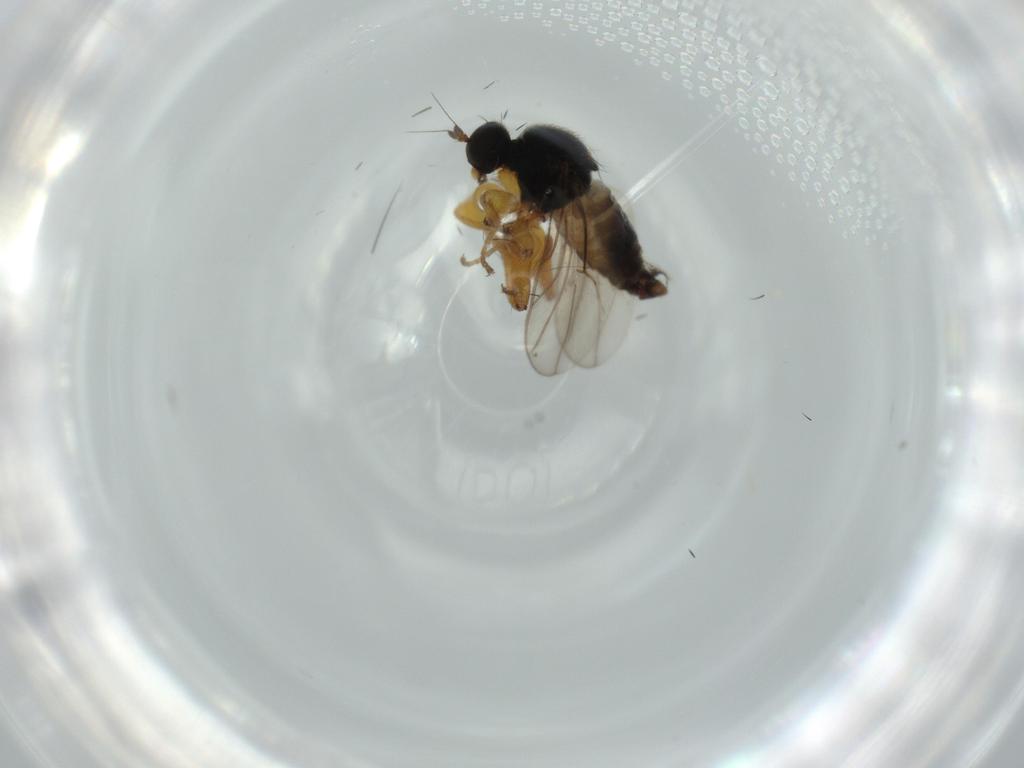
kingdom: Animalia
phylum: Arthropoda
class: Insecta
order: Diptera
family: Hybotidae
